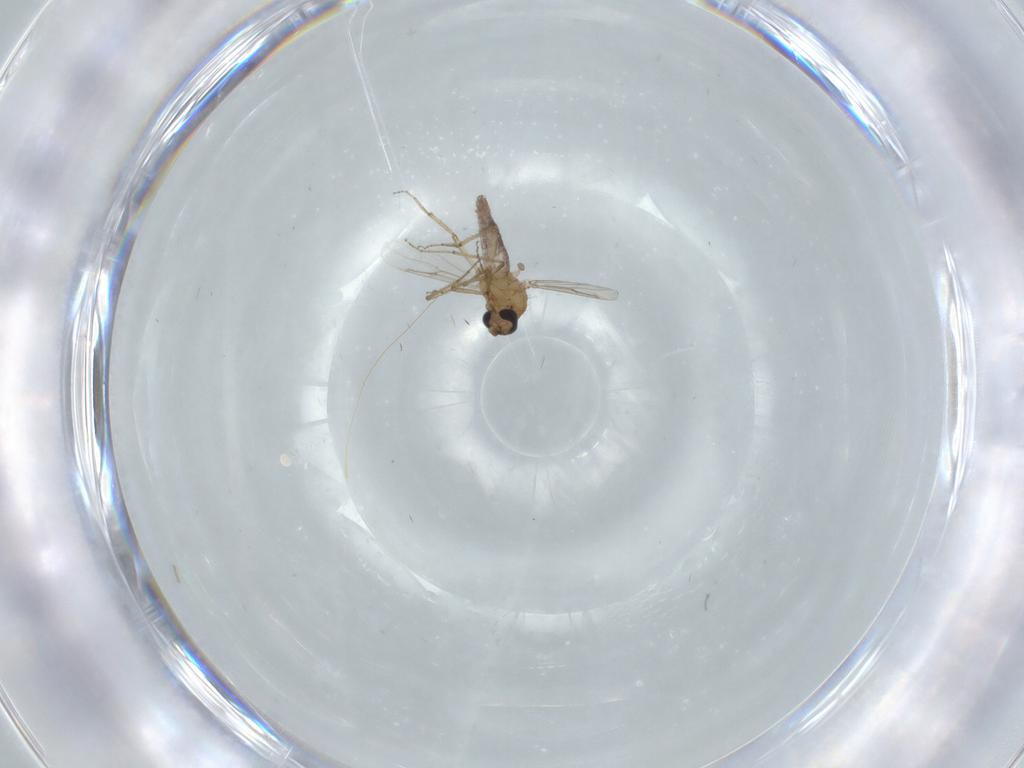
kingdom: Animalia
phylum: Arthropoda
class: Insecta
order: Diptera
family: Ceratopogonidae
